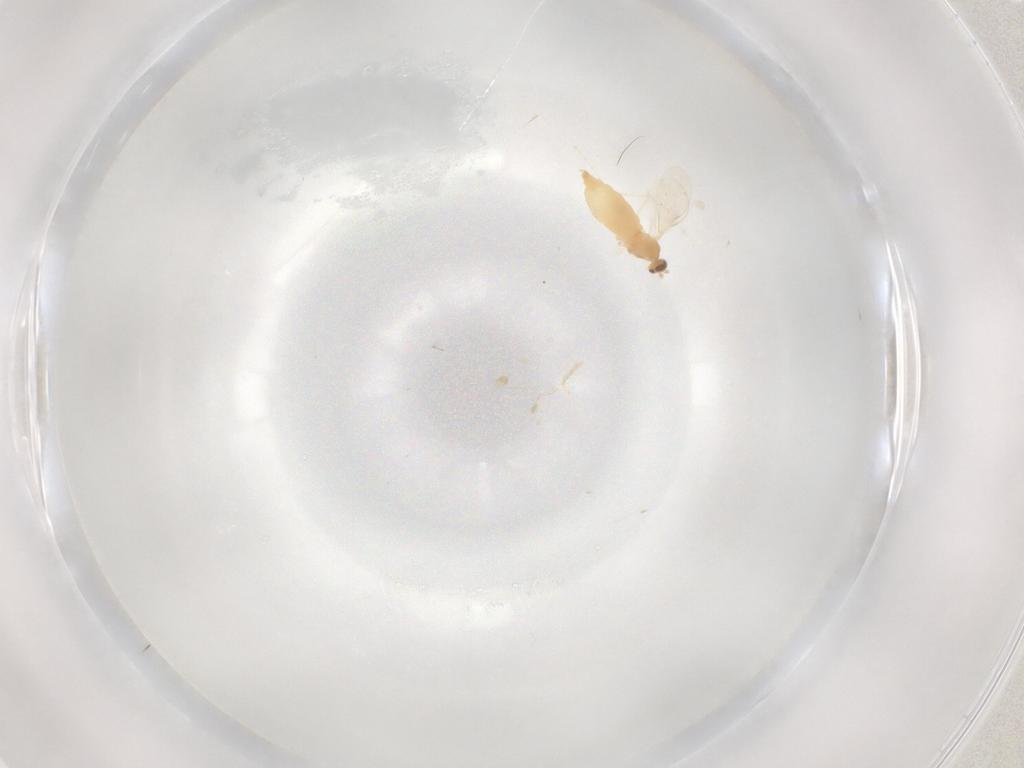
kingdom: Animalia
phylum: Arthropoda
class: Insecta
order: Diptera
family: Cecidomyiidae
